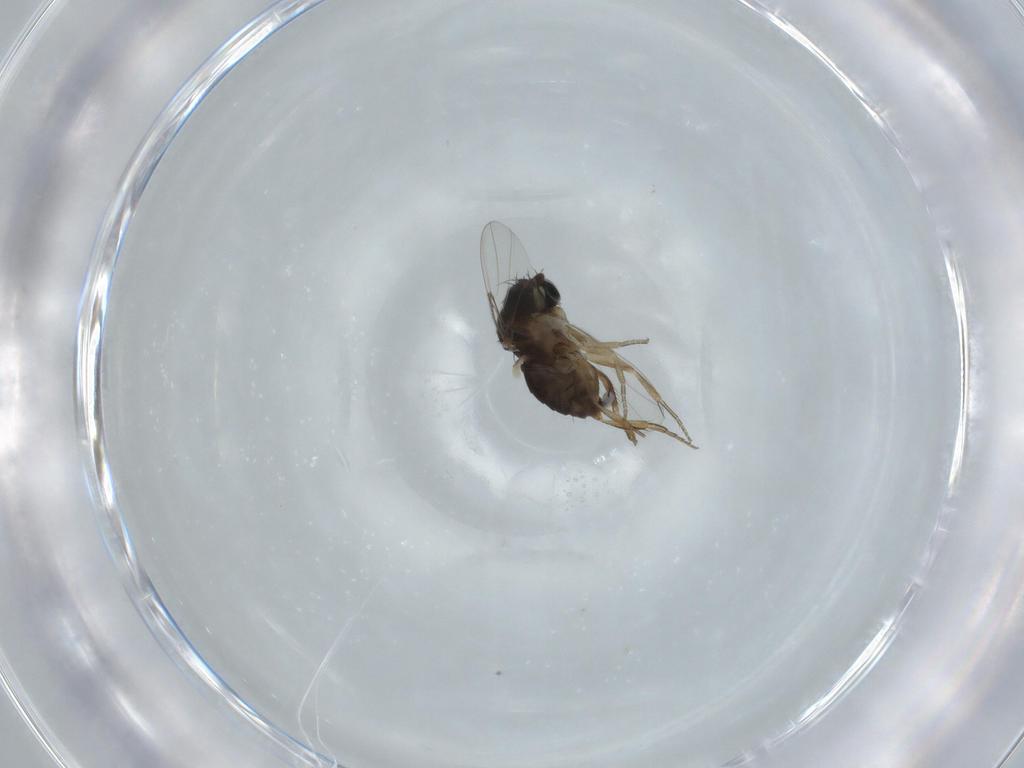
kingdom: Animalia
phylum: Arthropoda
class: Insecta
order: Diptera
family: Phoridae
